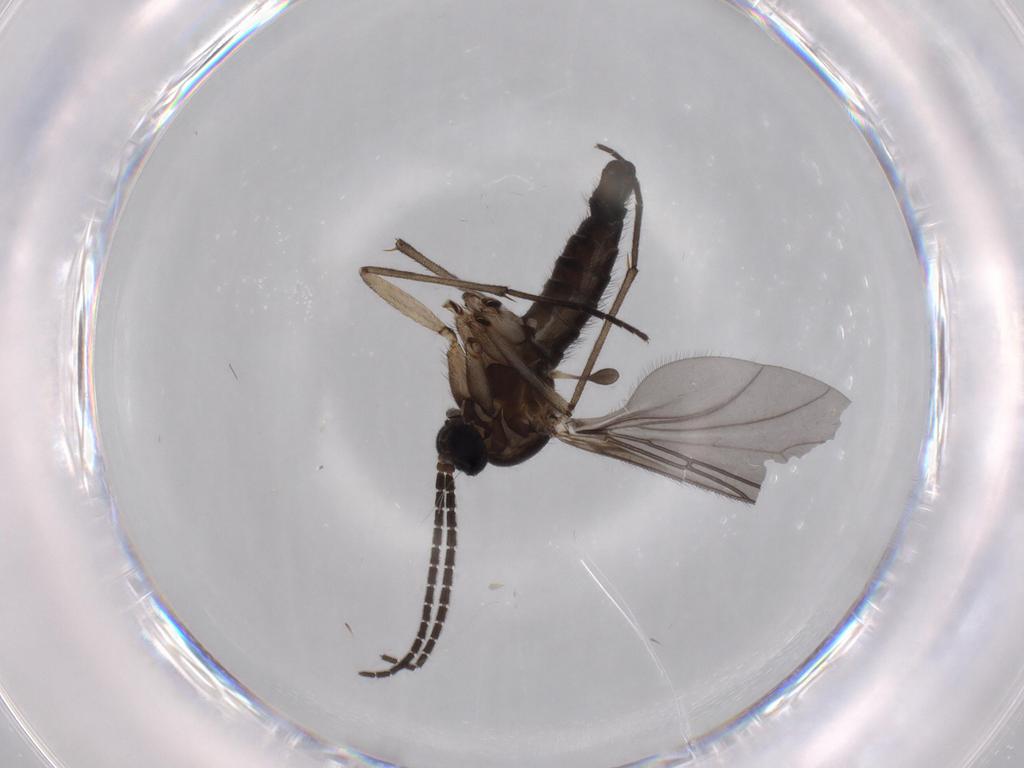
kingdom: Animalia
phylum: Arthropoda
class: Insecta
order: Diptera
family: Sciaridae
